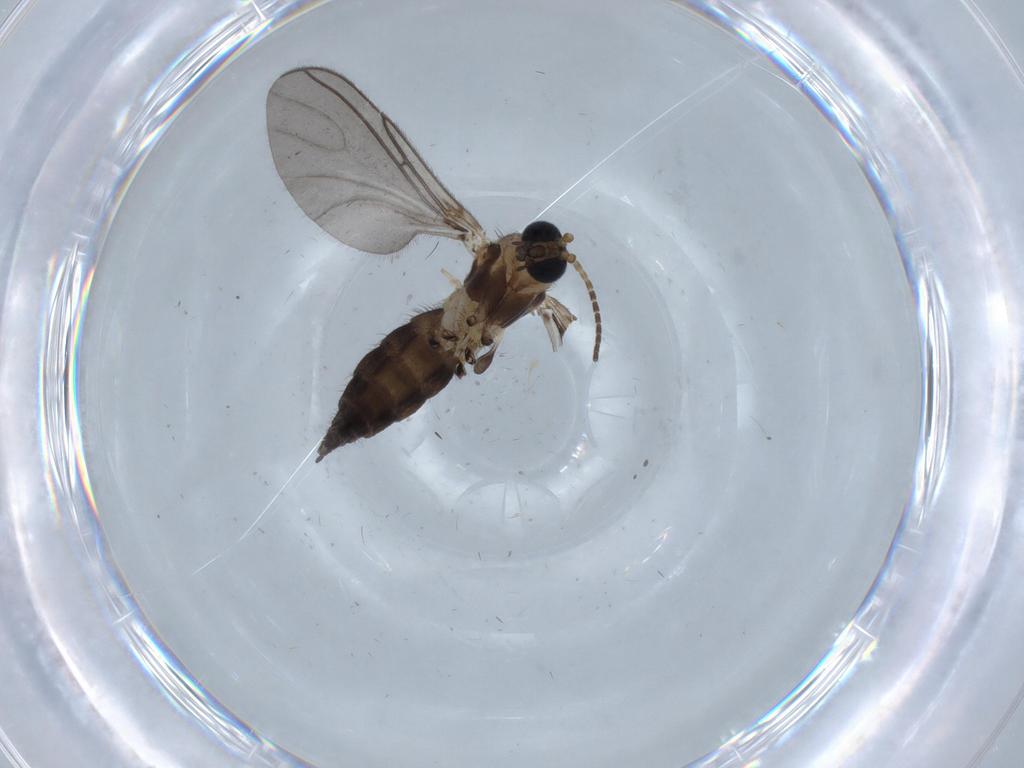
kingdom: Animalia
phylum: Arthropoda
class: Insecta
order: Diptera
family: Sciaridae
